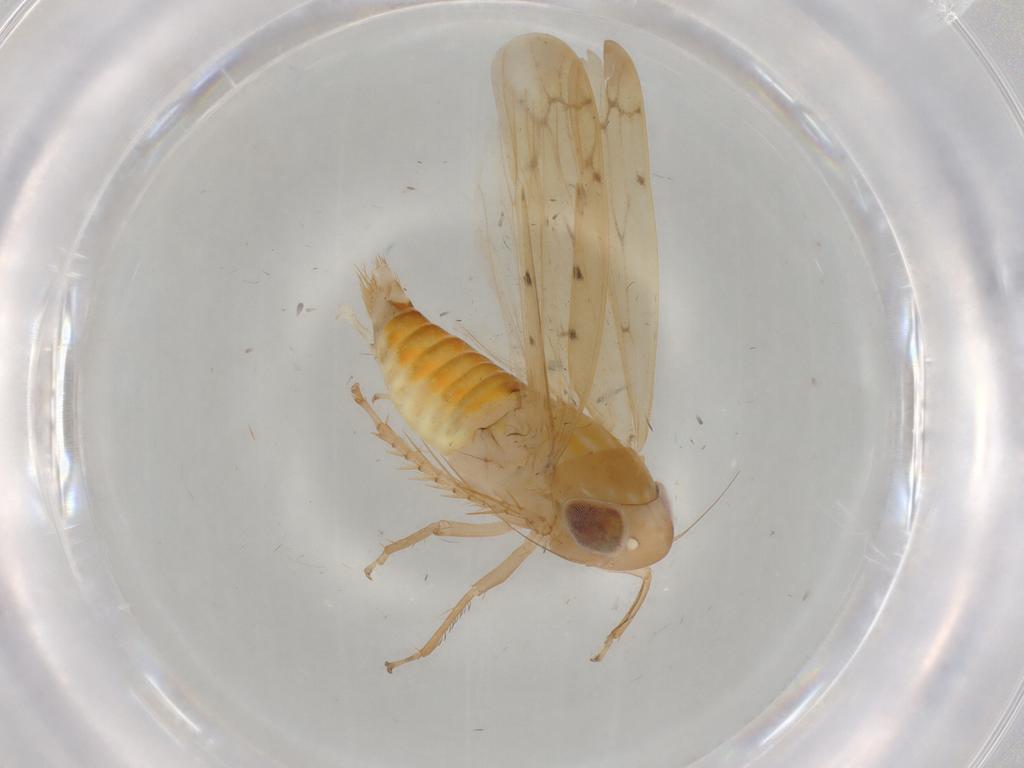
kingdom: Animalia
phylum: Arthropoda
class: Insecta
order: Hemiptera
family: Cicadellidae
